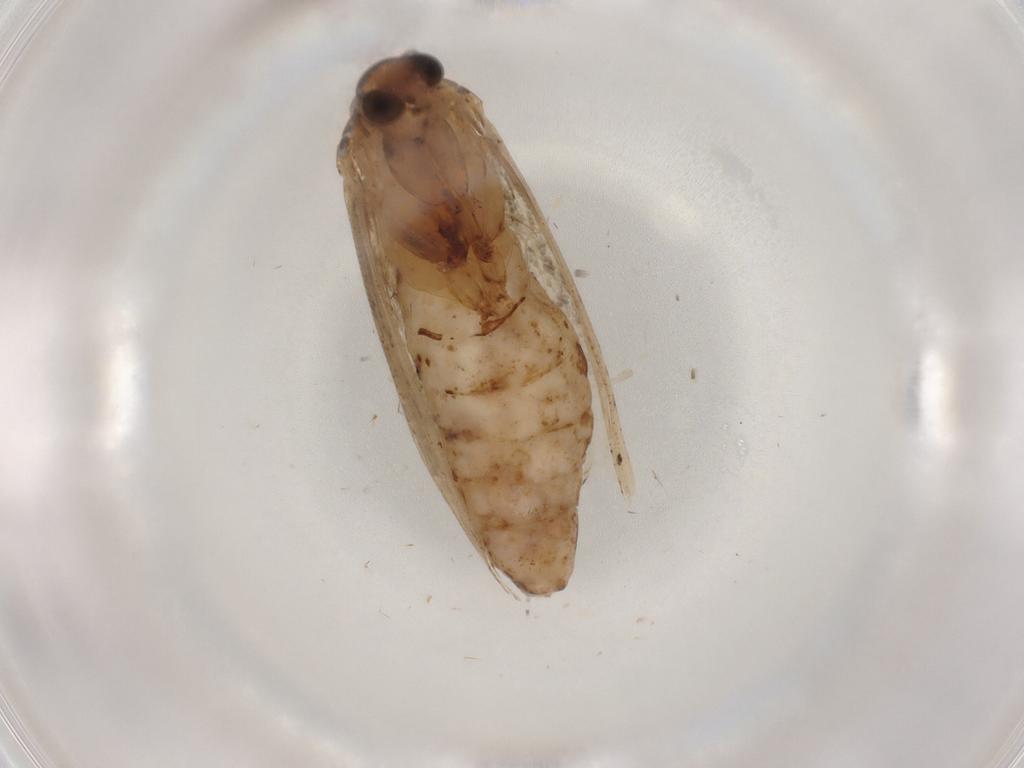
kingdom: Animalia
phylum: Arthropoda
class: Insecta
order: Lepidoptera
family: Glyphipterigidae
